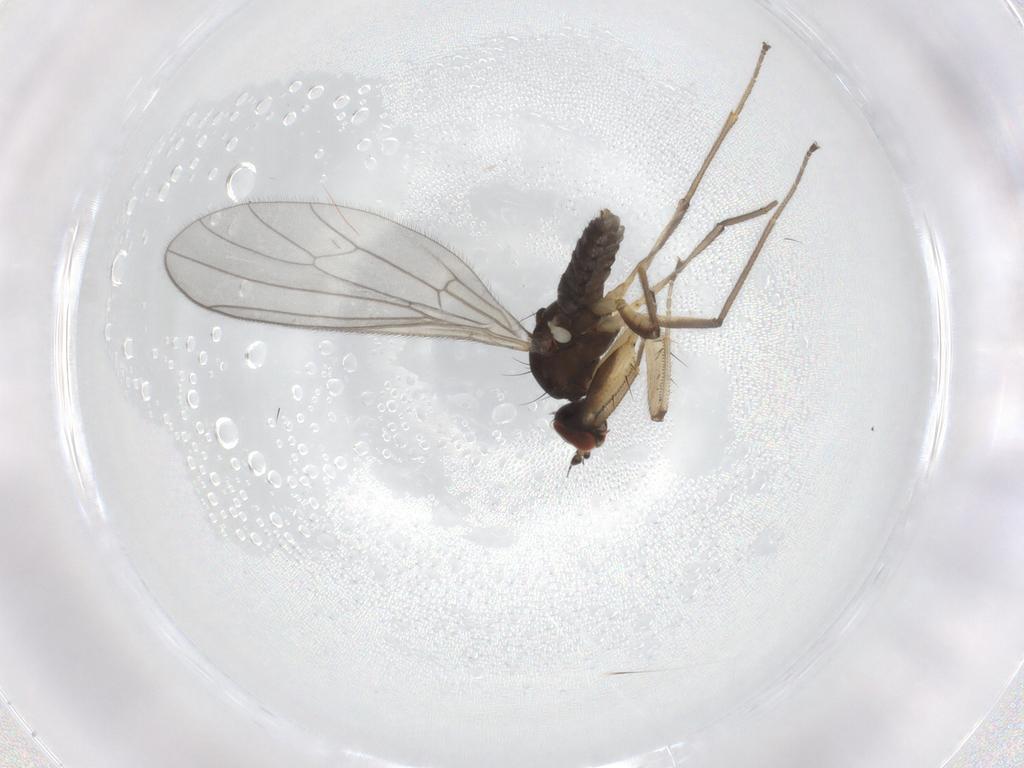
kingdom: Animalia
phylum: Arthropoda
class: Insecta
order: Diptera
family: Empididae
